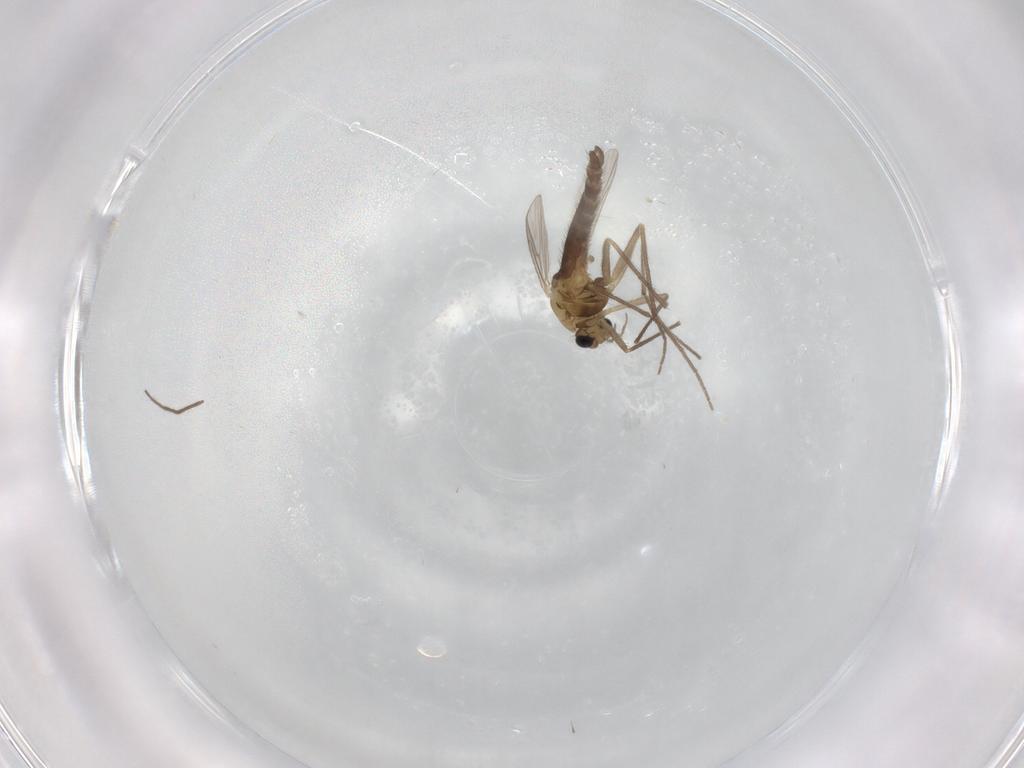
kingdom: Animalia
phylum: Arthropoda
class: Insecta
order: Diptera
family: Chironomidae
